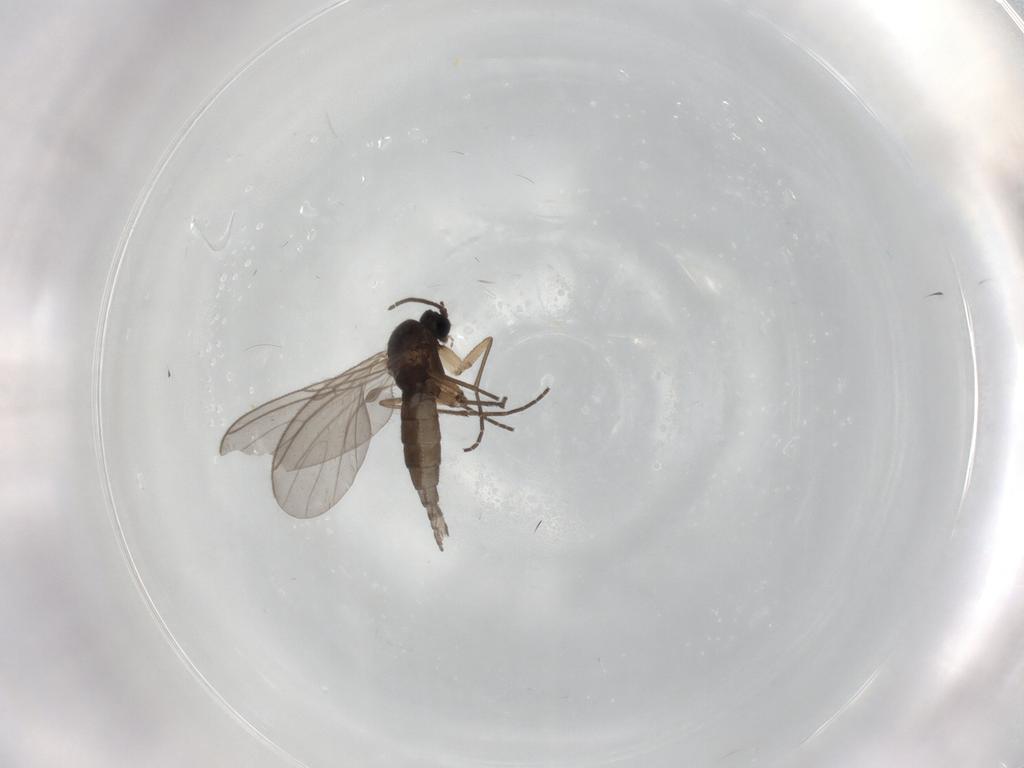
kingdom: Animalia
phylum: Arthropoda
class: Insecta
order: Diptera
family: Sciaridae
